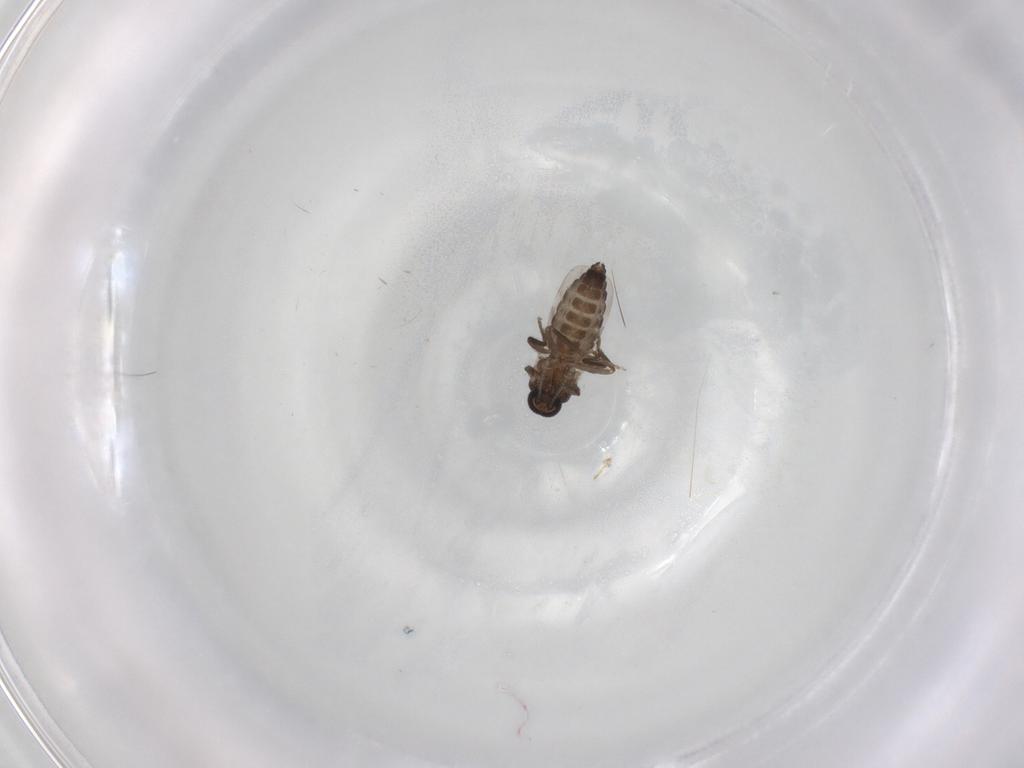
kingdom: Animalia
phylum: Arthropoda
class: Insecta
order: Diptera
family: Ceratopogonidae
